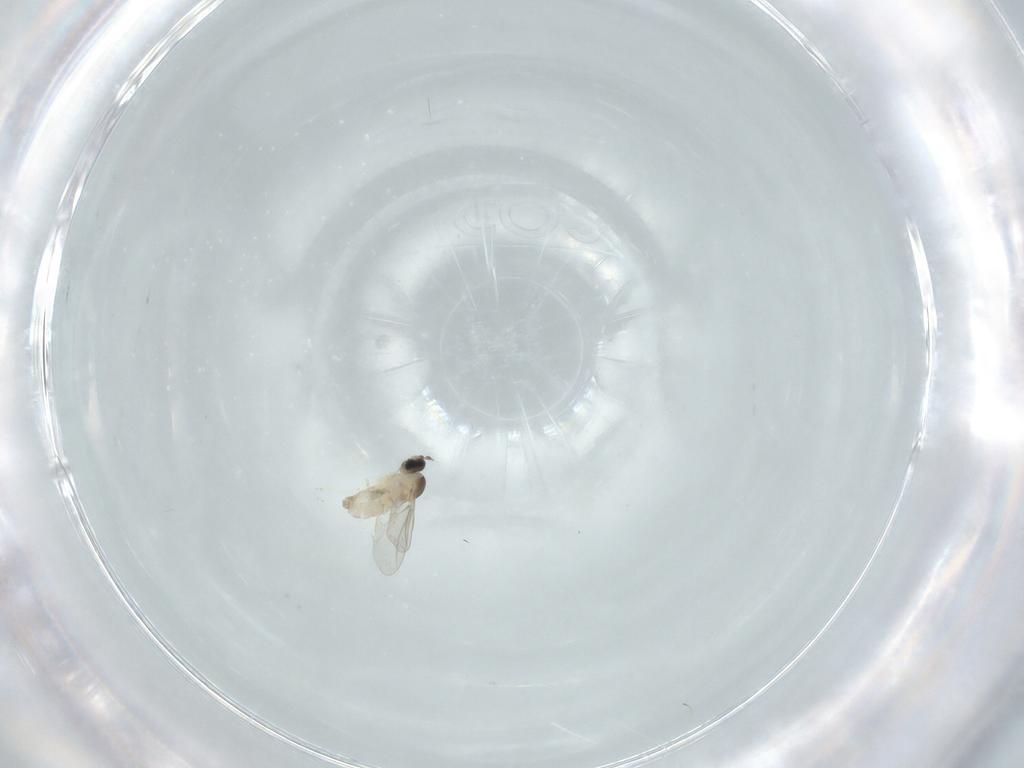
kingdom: Animalia
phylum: Arthropoda
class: Insecta
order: Diptera
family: Cecidomyiidae
